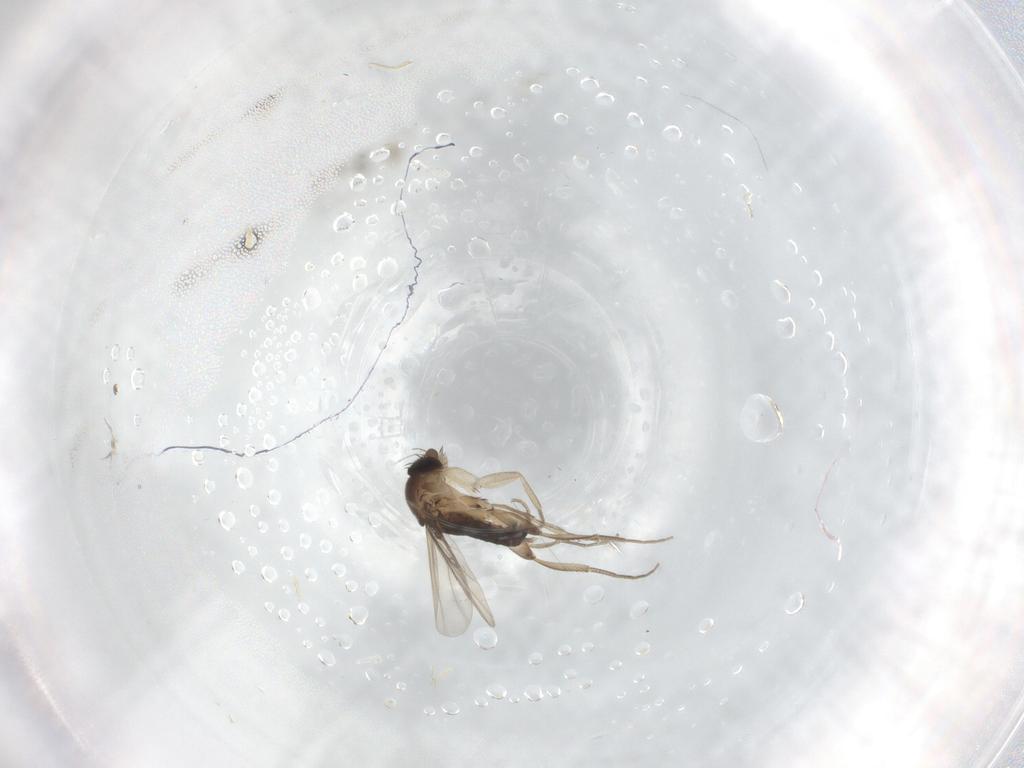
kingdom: Animalia
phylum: Arthropoda
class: Insecta
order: Diptera
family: Phoridae
